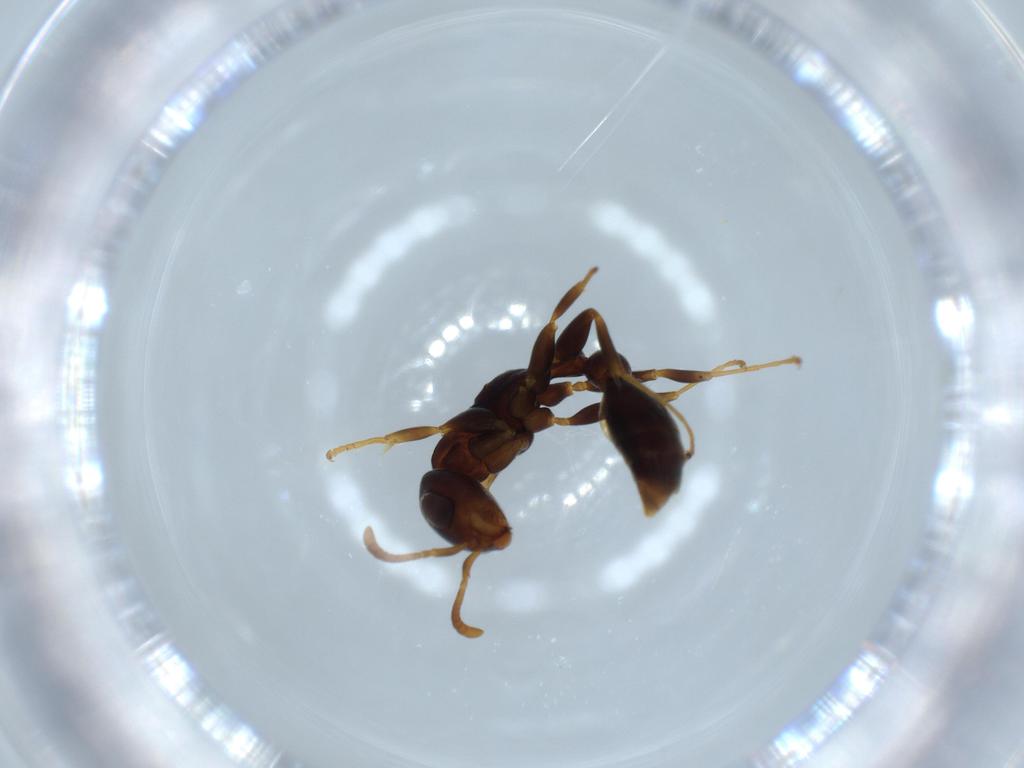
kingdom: Animalia
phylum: Arthropoda
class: Insecta
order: Hymenoptera
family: Formicidae
